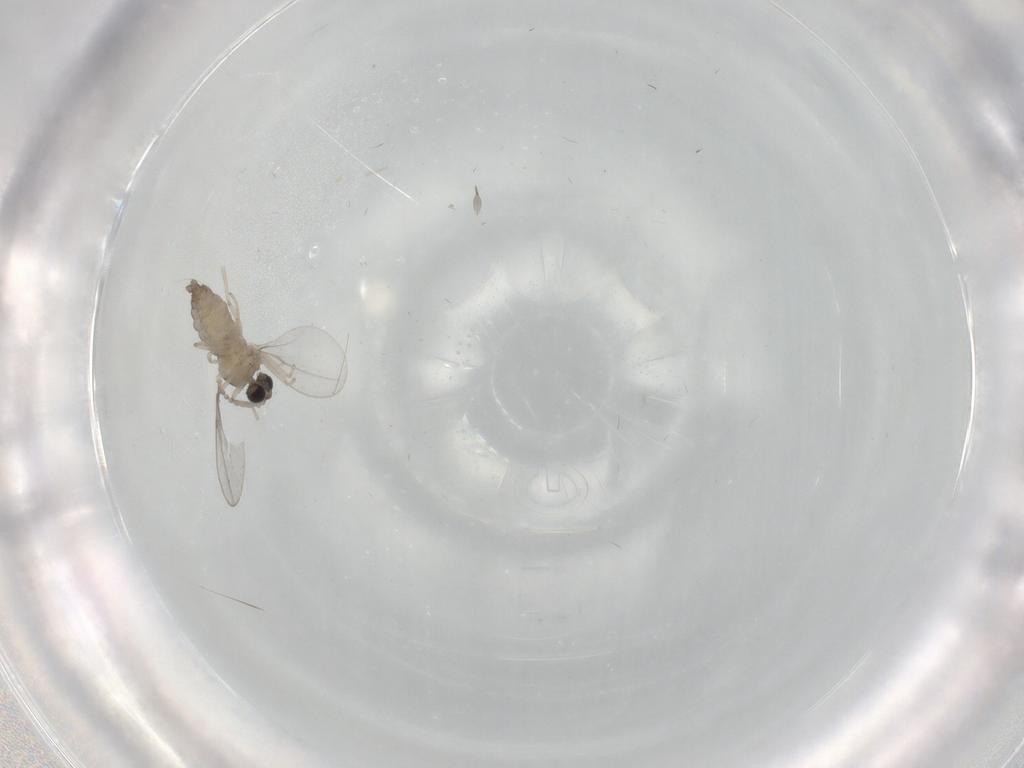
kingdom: Animalia
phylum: Arthropoda
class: Insecta
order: Diptera
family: Cecidomyiidae
